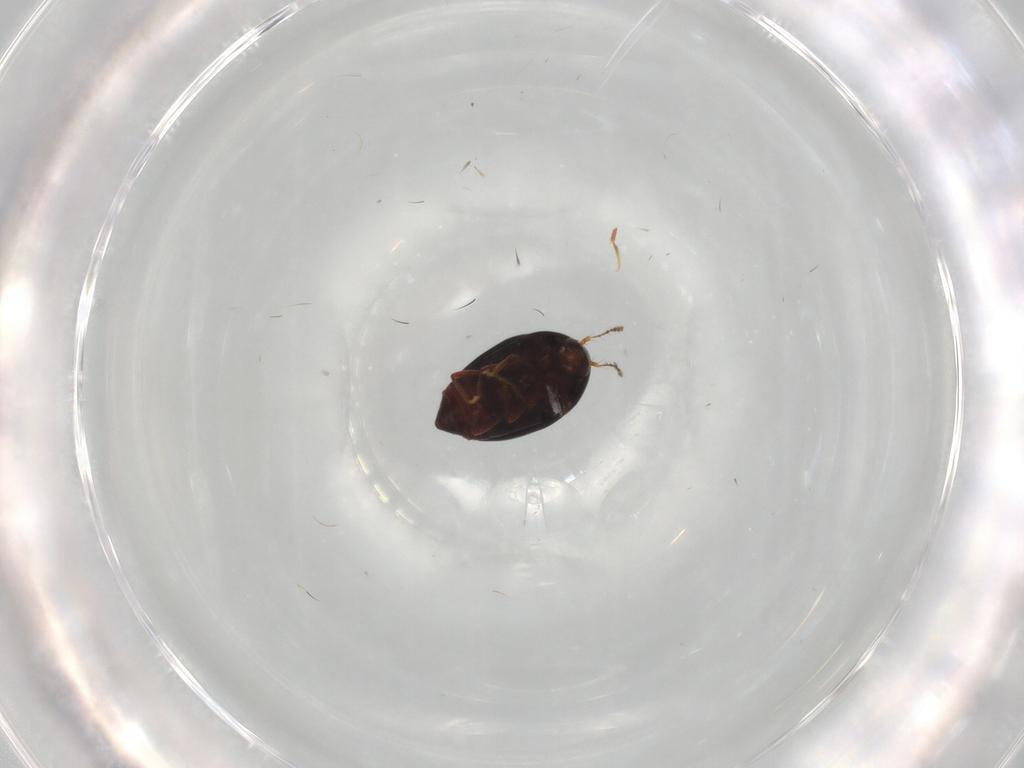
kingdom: Animalia
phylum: Arthropoda
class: Insecta
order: Coleoptera
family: Staphylinidae
